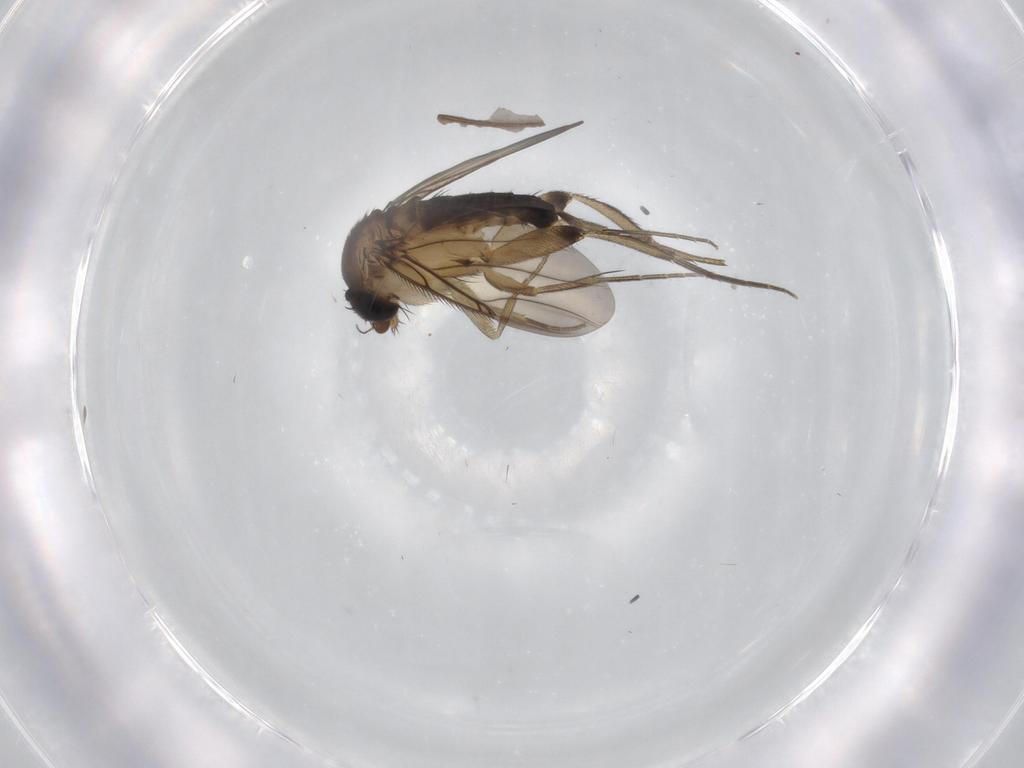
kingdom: Animalia
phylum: Arthropoda
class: Insecta
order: Diptera
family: Phoridae
